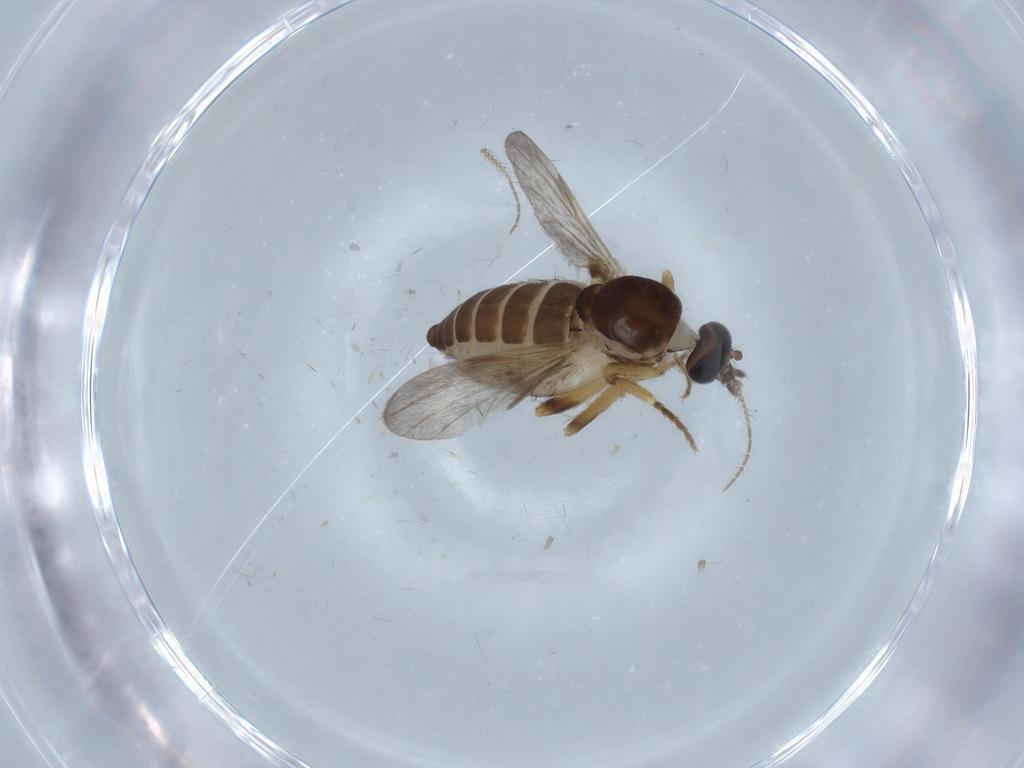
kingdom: Animalia
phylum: Arthropoda
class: Insecta
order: Diptera
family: Ceratopogonidae
